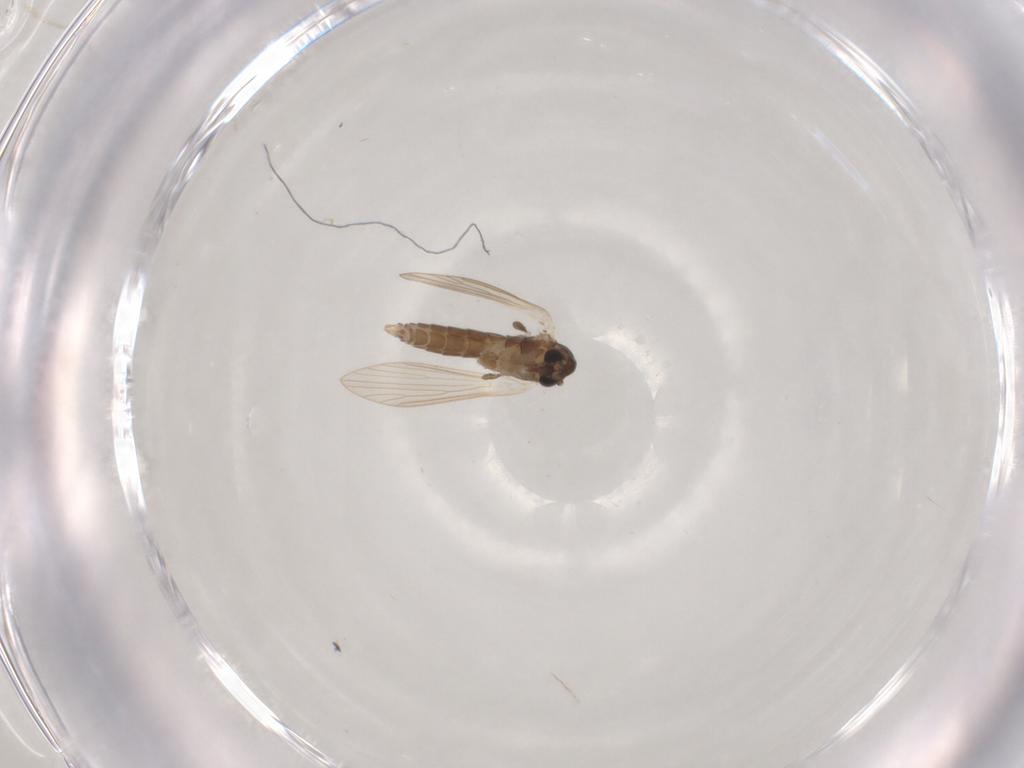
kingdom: Animalia
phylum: Arthropoda
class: Insecta
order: Diptera
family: Psychodidae
